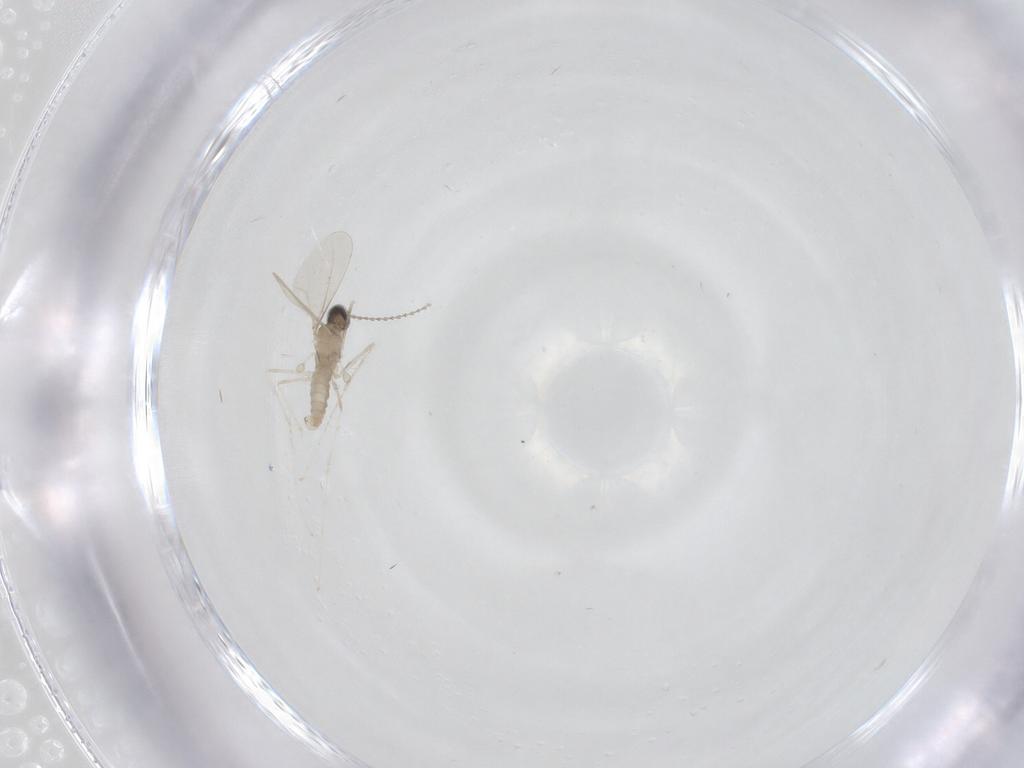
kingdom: Animalia
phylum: Arthropoda
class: Insecta
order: Diptera
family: Cecidomyiidae
